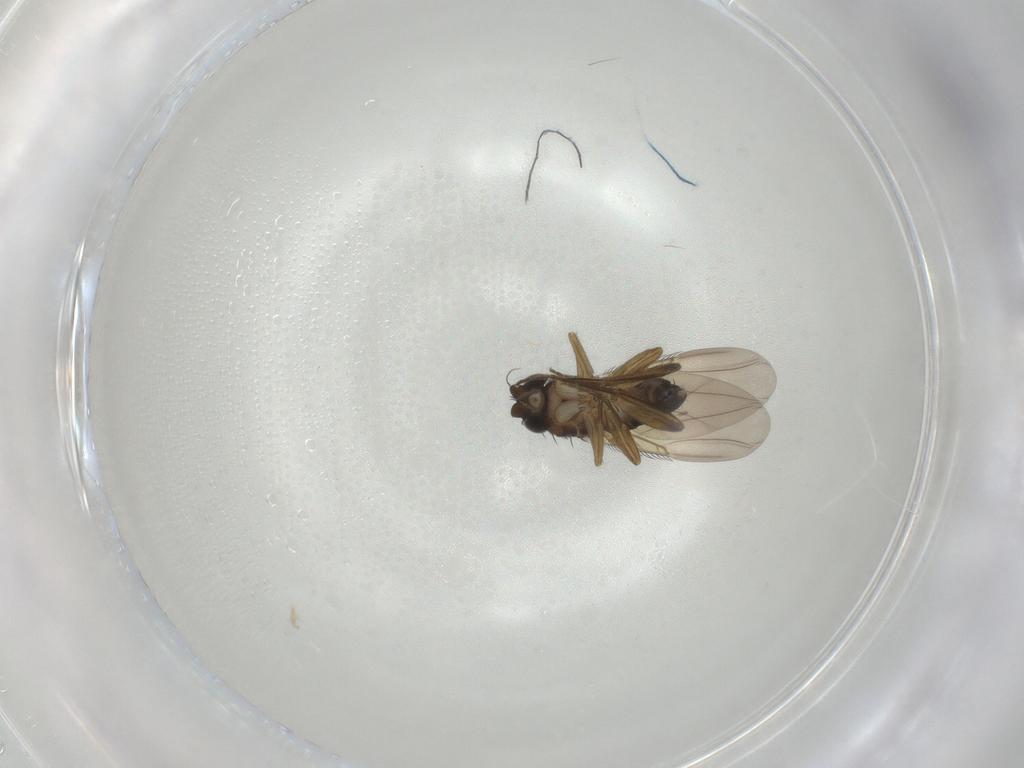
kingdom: Animalia
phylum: Arthropoda
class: Insecta
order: Diptera
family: Phoridae
